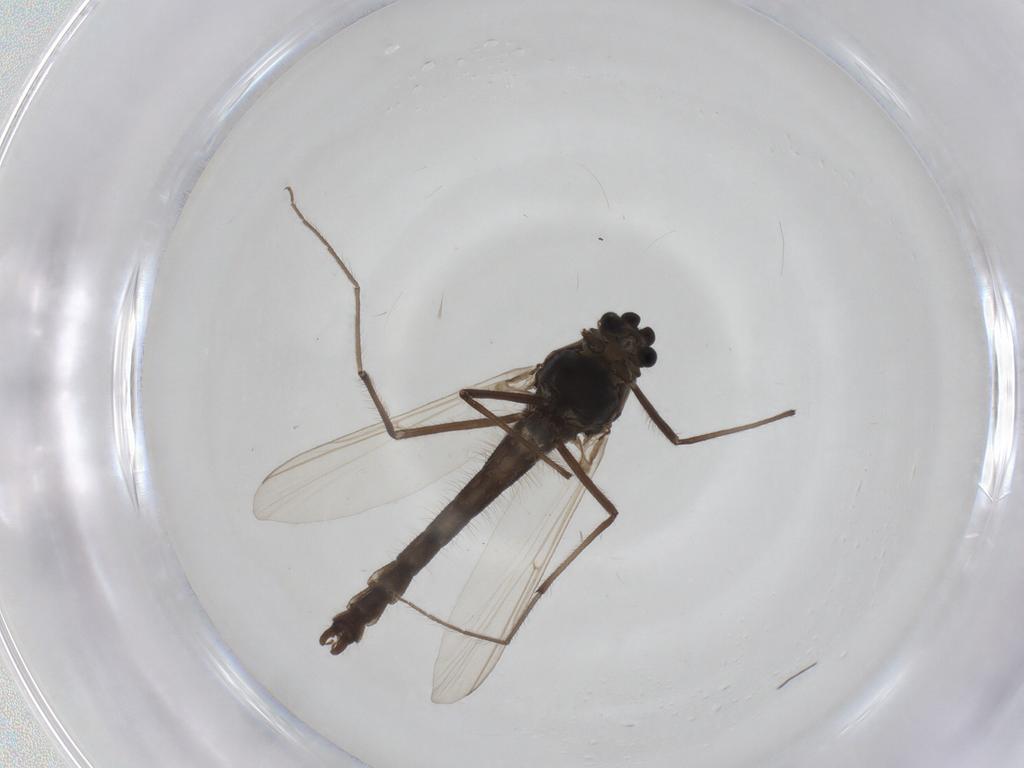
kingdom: Animalia
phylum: Arthropoda
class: Insecta
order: Diptera
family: Chironomidae
